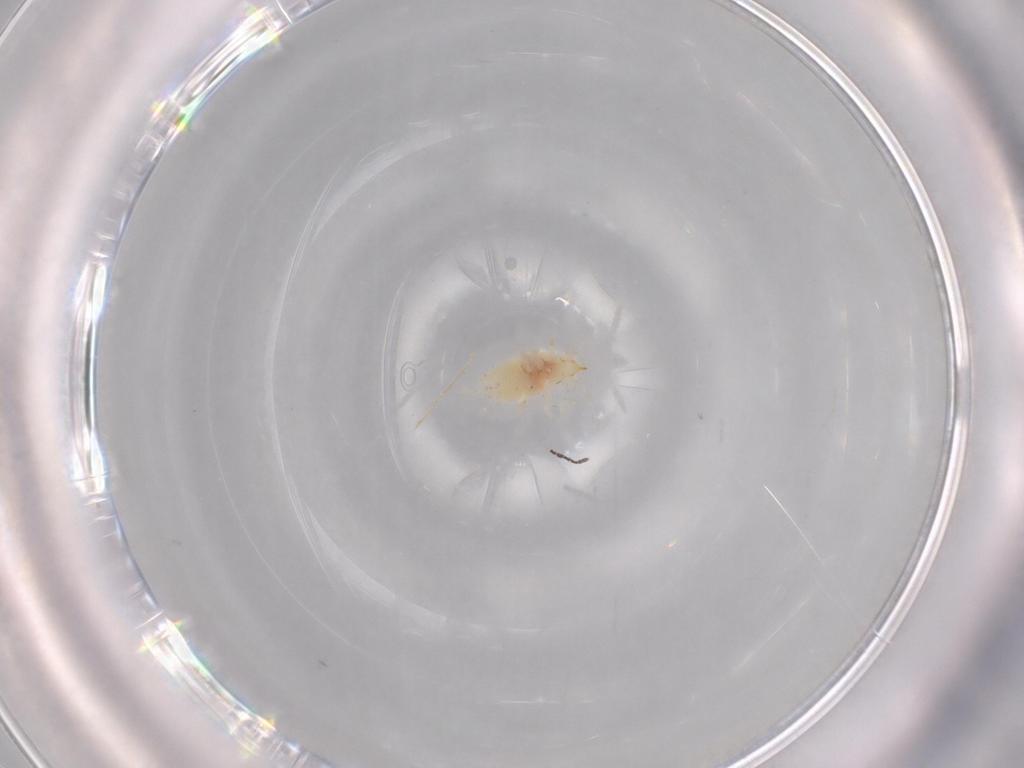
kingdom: Animalia
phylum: Arthropoda
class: Insecta
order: Neuroptera
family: Coniopterygidae
